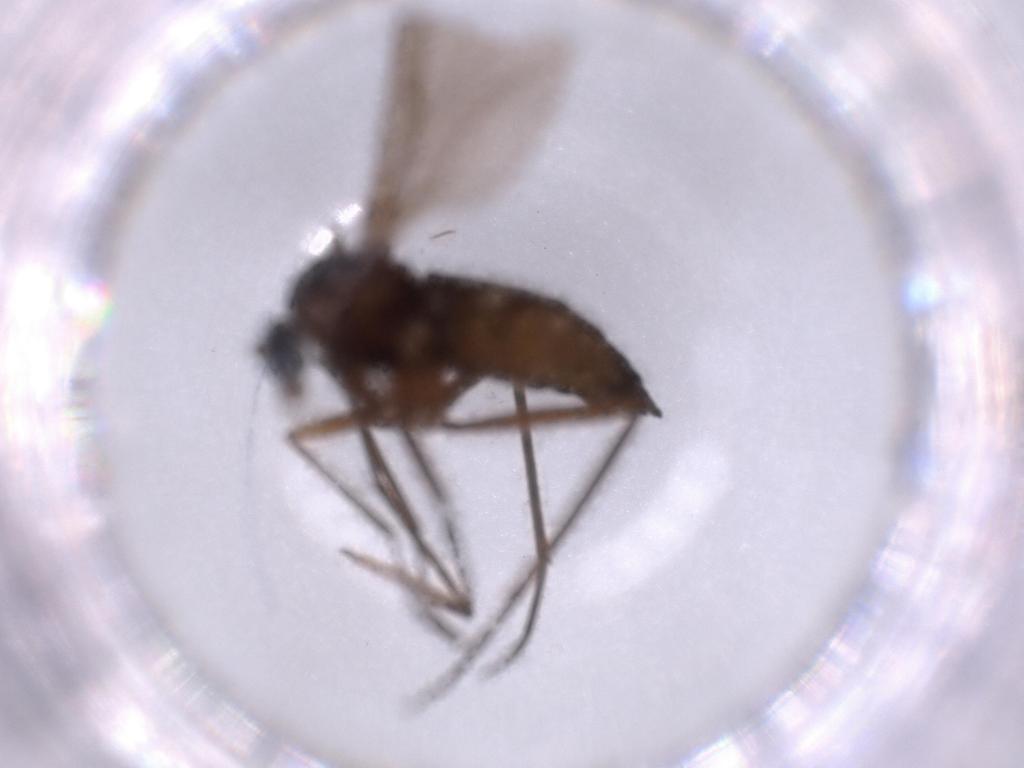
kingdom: Animalia
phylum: Arthropoda
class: Insecta
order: Diptera
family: Sciaridae
